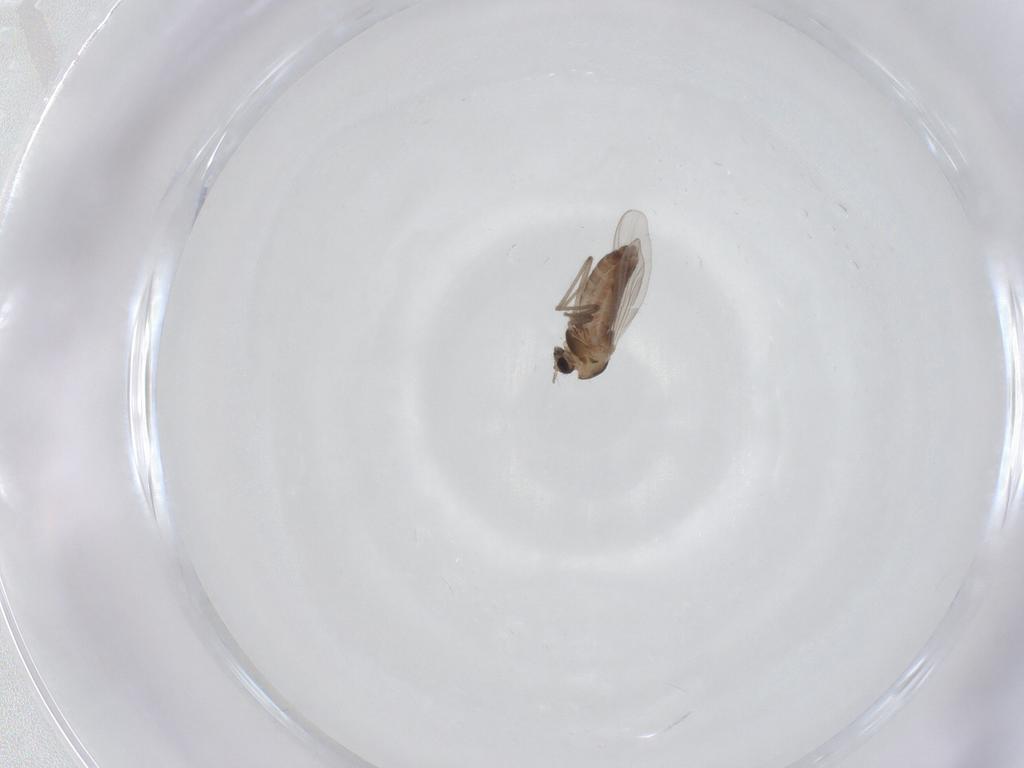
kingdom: Animalia
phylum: Arthropoda
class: Insecta
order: Diptera
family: Chironomidae
